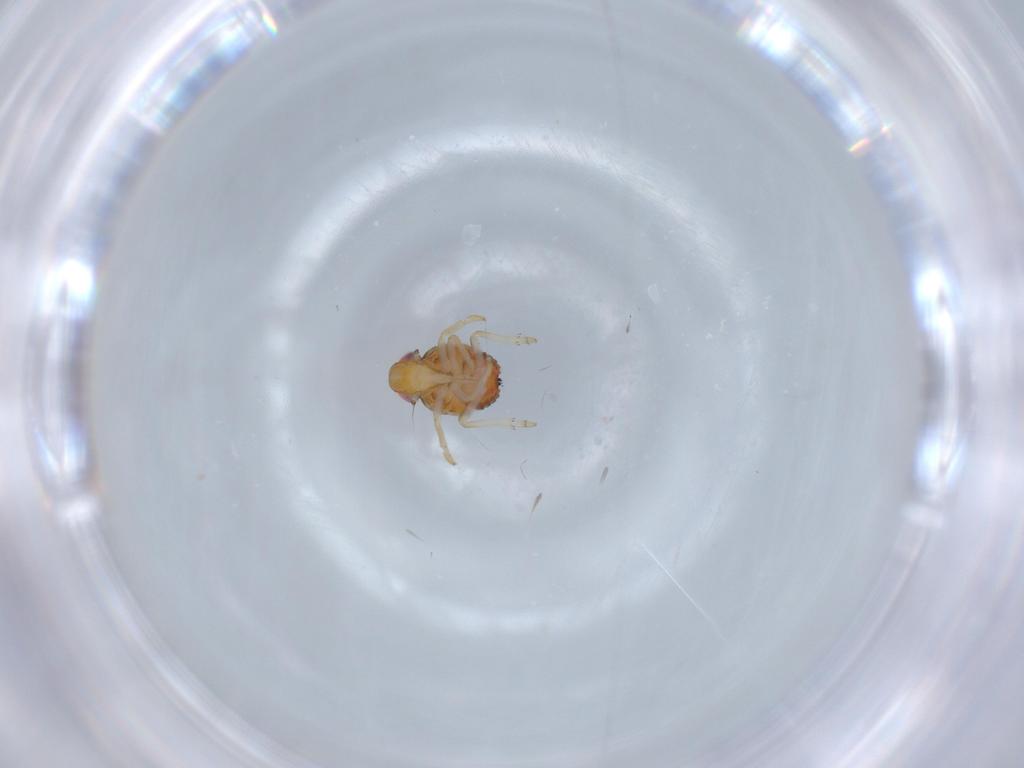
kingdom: Animalia
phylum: Arthropoda
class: Insecta
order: Hemiptera
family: Issidae
